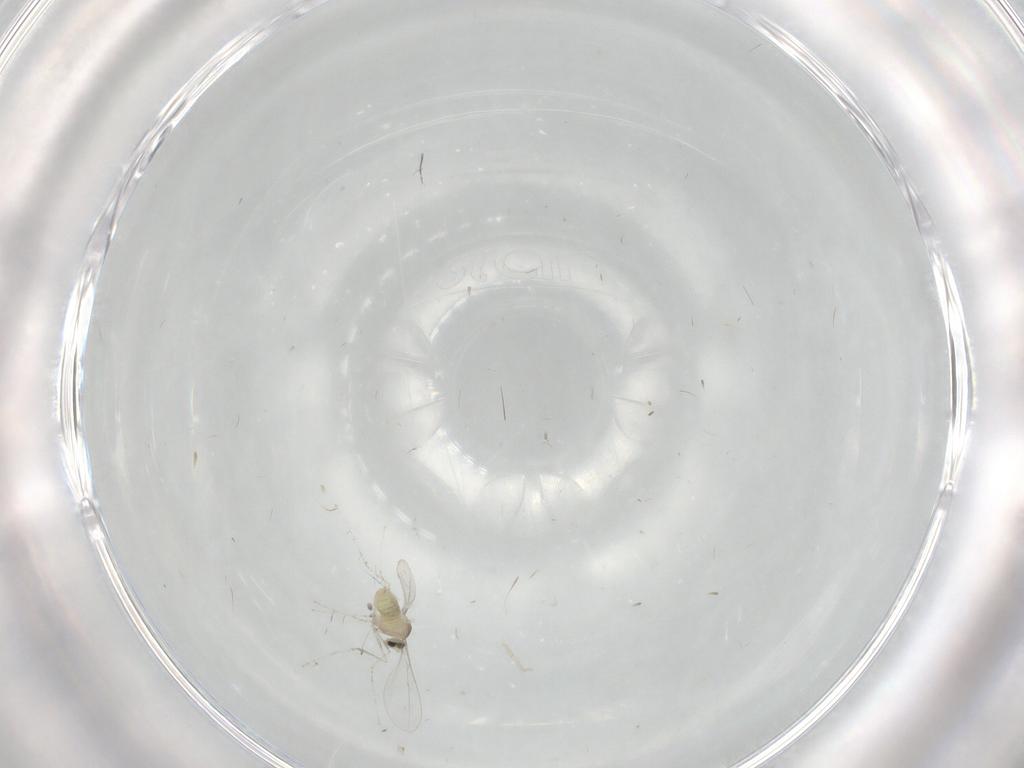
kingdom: Animalia
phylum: Arthropoda
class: Insecta
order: Diptera
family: Cecidomyiidae
